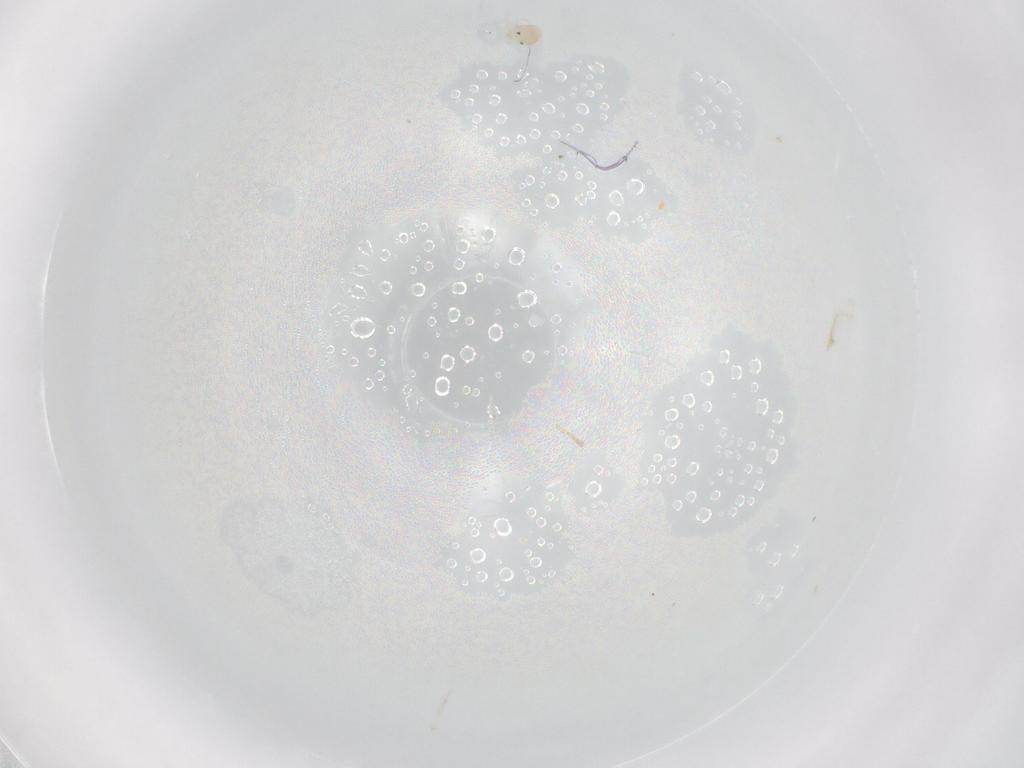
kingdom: Animalia
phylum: Arthropoda
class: Arachnida
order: Trombidiformes
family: Arrenuridae
